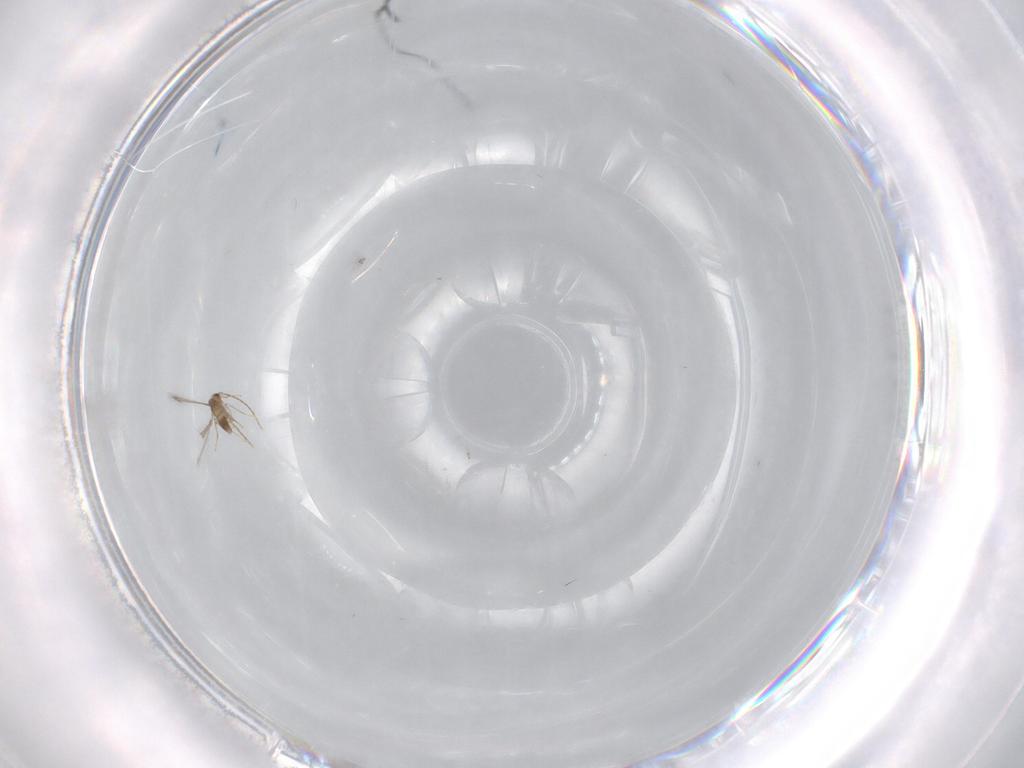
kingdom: Animalia
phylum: Arthropoda
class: Insecta
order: Hymenoptera
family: Mymaridae
